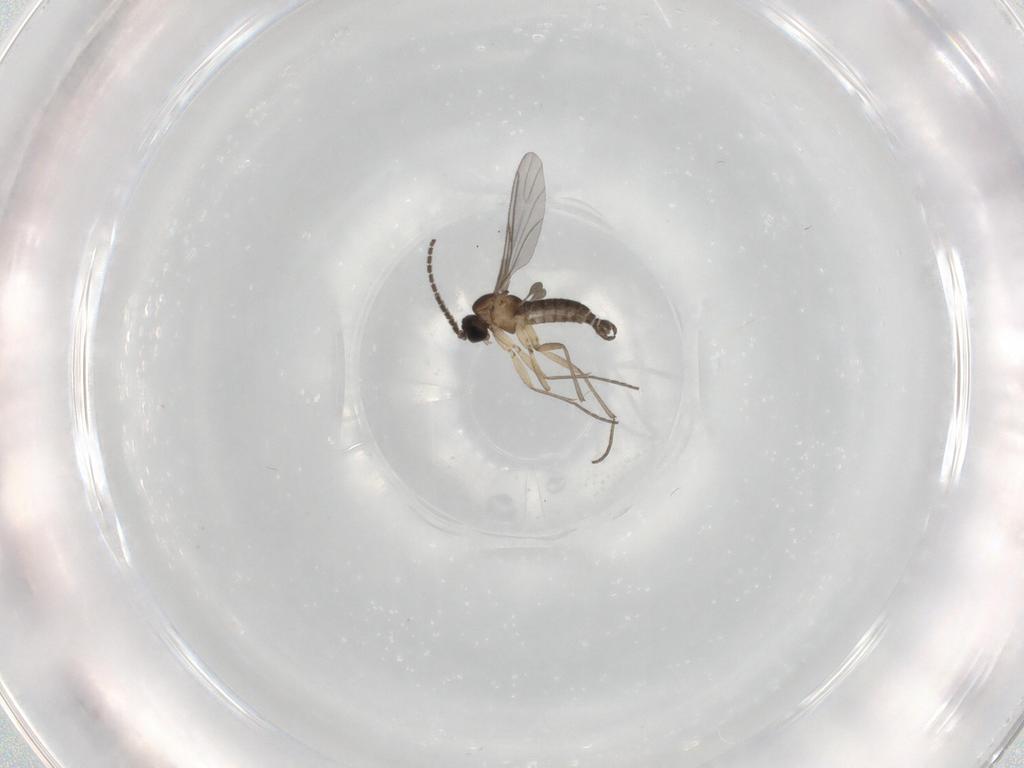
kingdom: Animalia
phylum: Arthropoda
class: Insecta
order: Diptera
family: Sciaridae
